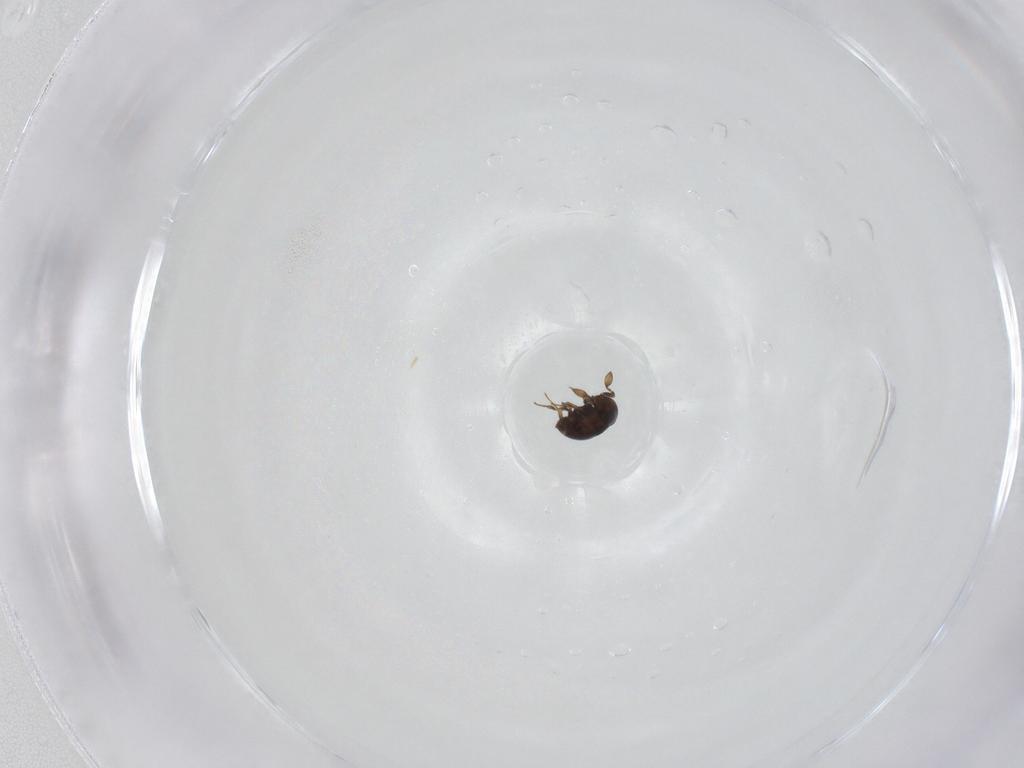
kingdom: Animalia
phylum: Arthropoda
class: Insecta
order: Hymenoptera
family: Scelionidae
